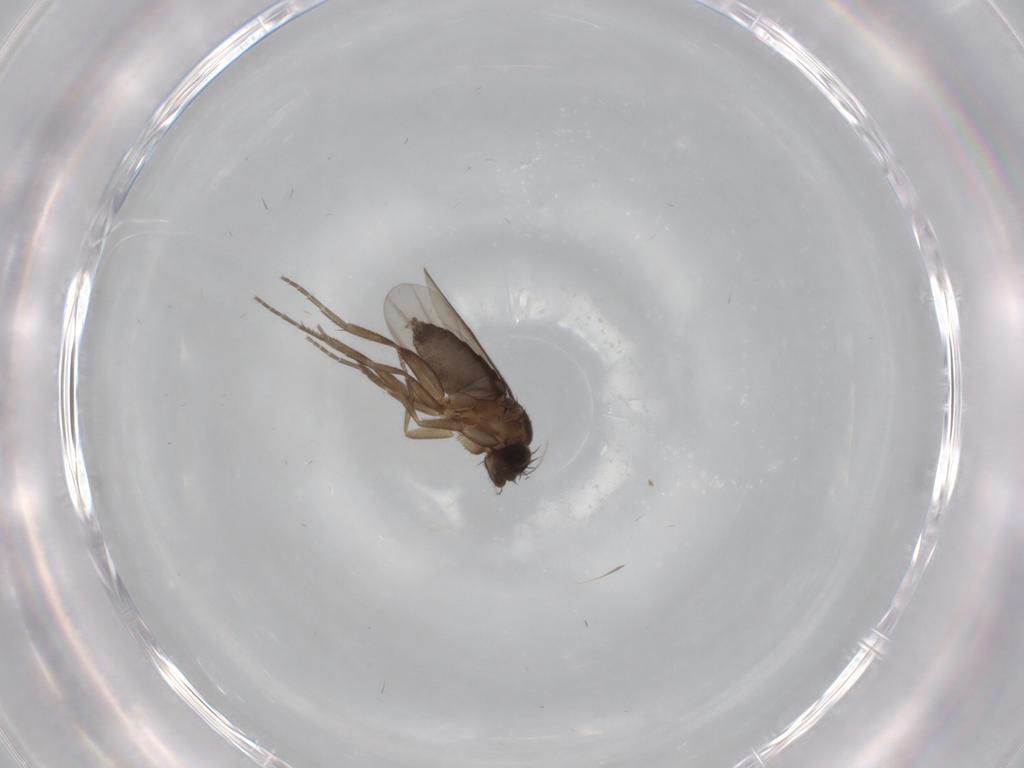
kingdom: Animalia
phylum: Arthropoda
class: Insecta
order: Diptera
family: Phoridae
